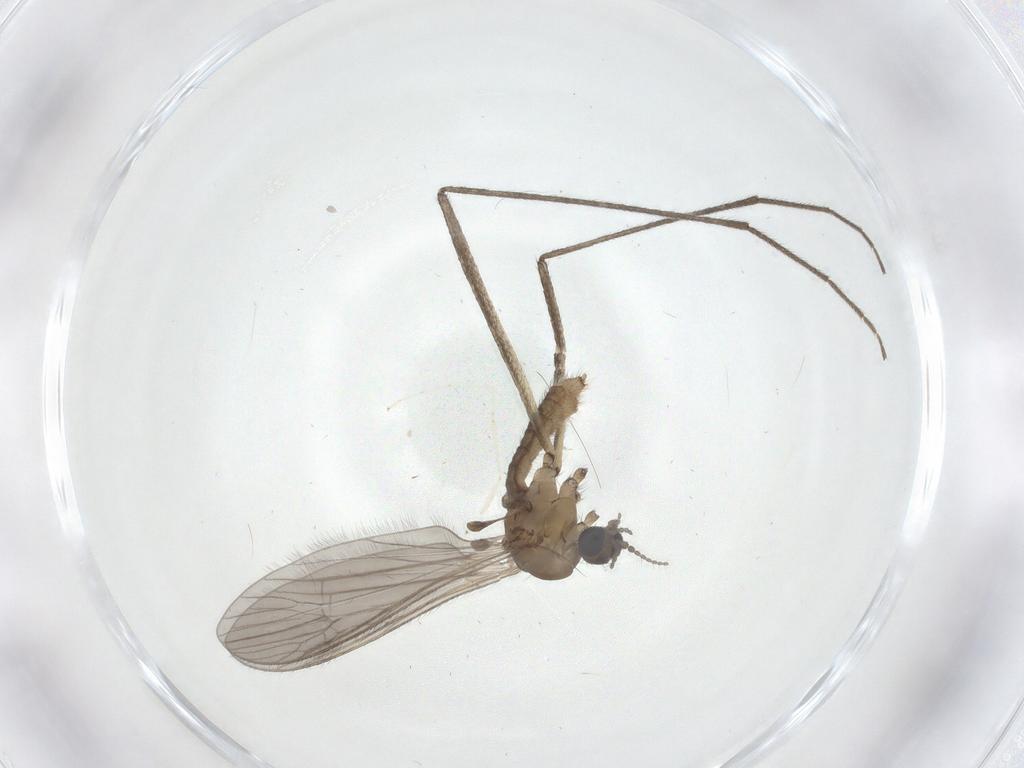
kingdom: Animalia
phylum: Arthropoda
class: Insecta
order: Diptera
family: Limoniidae
